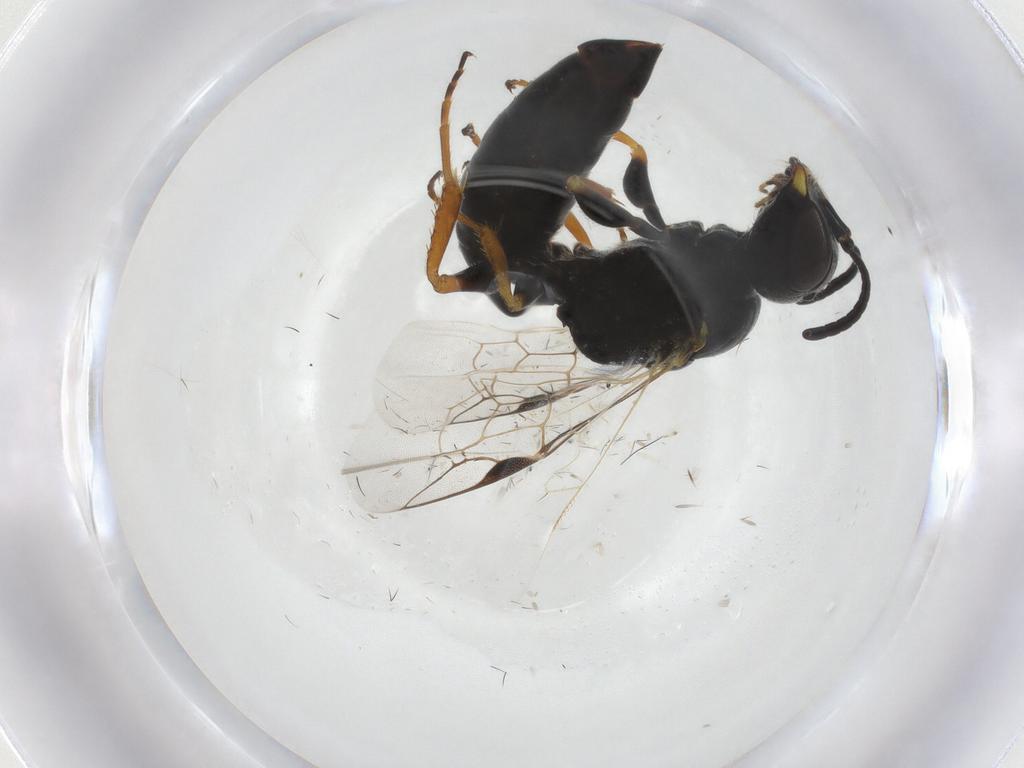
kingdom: Animalia
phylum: Arthropoda
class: Insecta
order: Hymenoptera
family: Pemphredonidae
